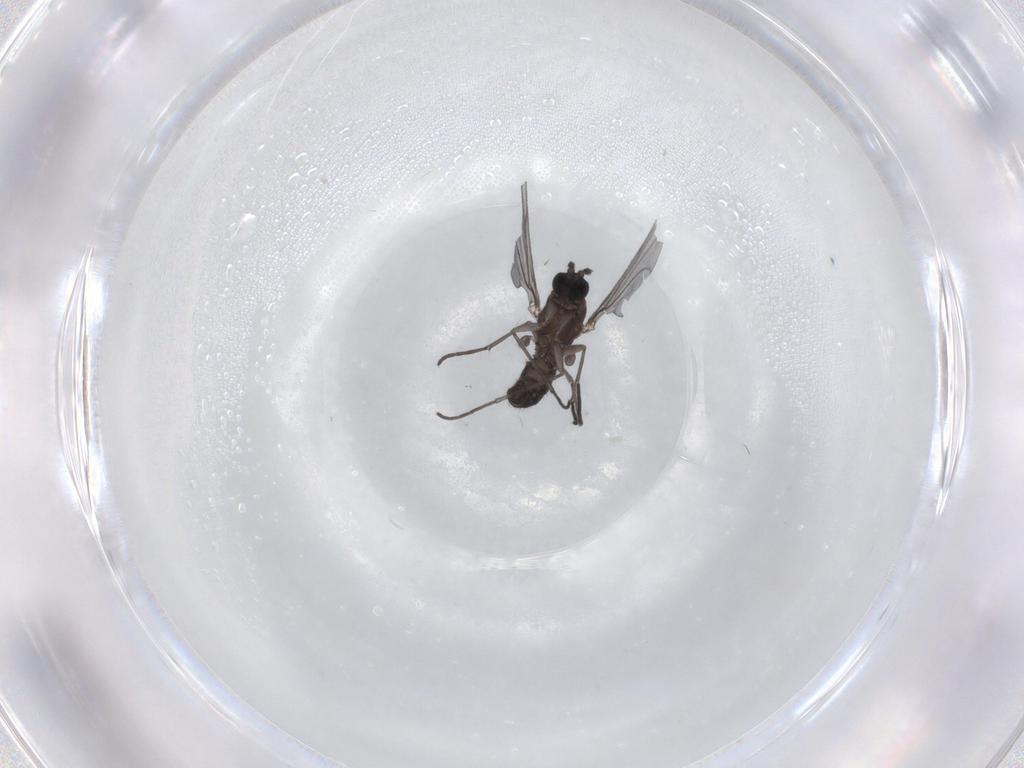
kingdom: Animalia
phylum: Arthropoda
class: Insecta
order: Diptera
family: Sciaridae
